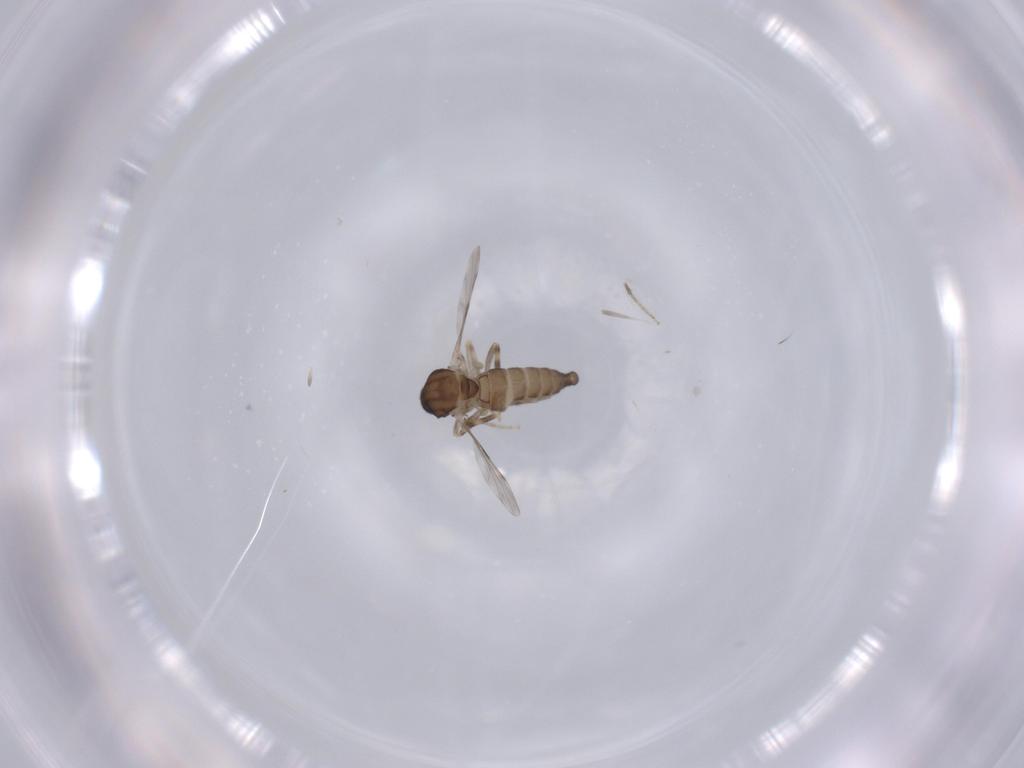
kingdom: Animalia
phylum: Arthropoda
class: Insecta
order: Diptera
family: Ceratopogonidae
